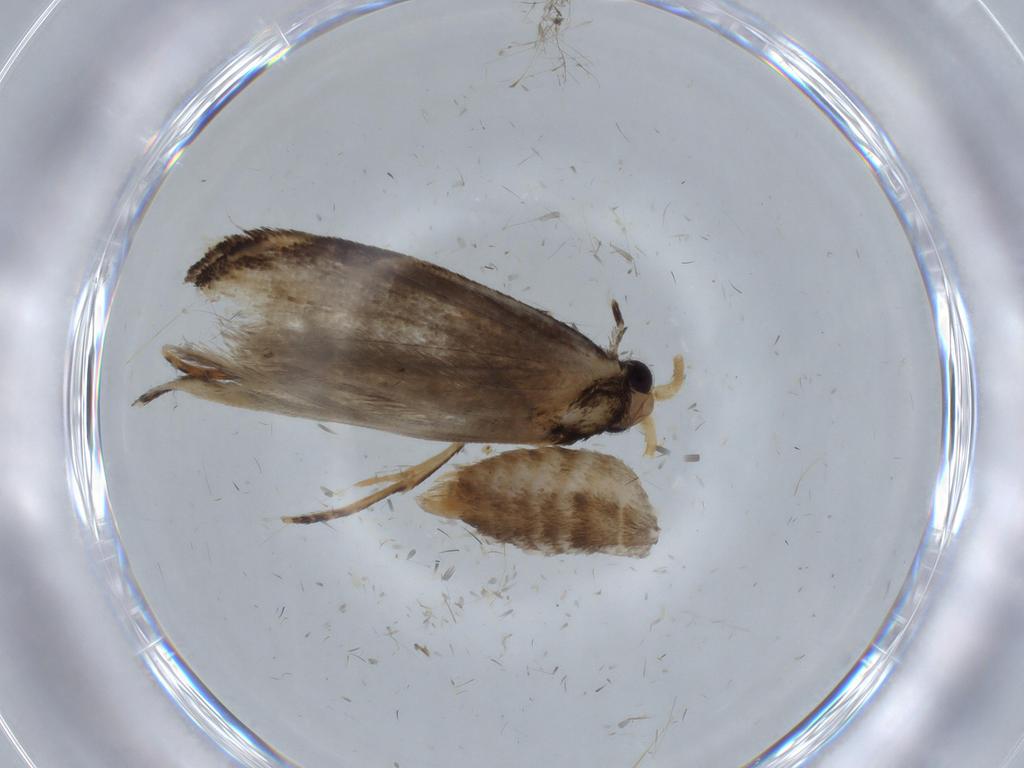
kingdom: Animalia
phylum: Arthropoda
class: Insecta
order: Lepidoptera
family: Tineidae
